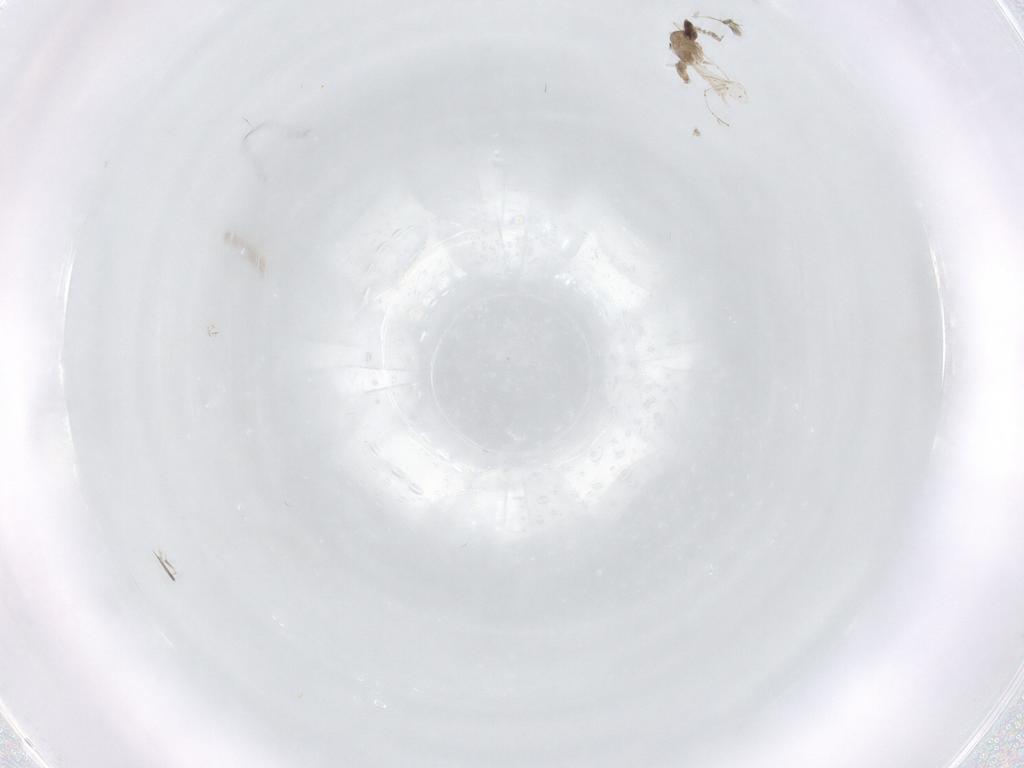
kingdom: Animalia
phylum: Arthropoda
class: Insecta
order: Diptera
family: Cecidomyiidae
